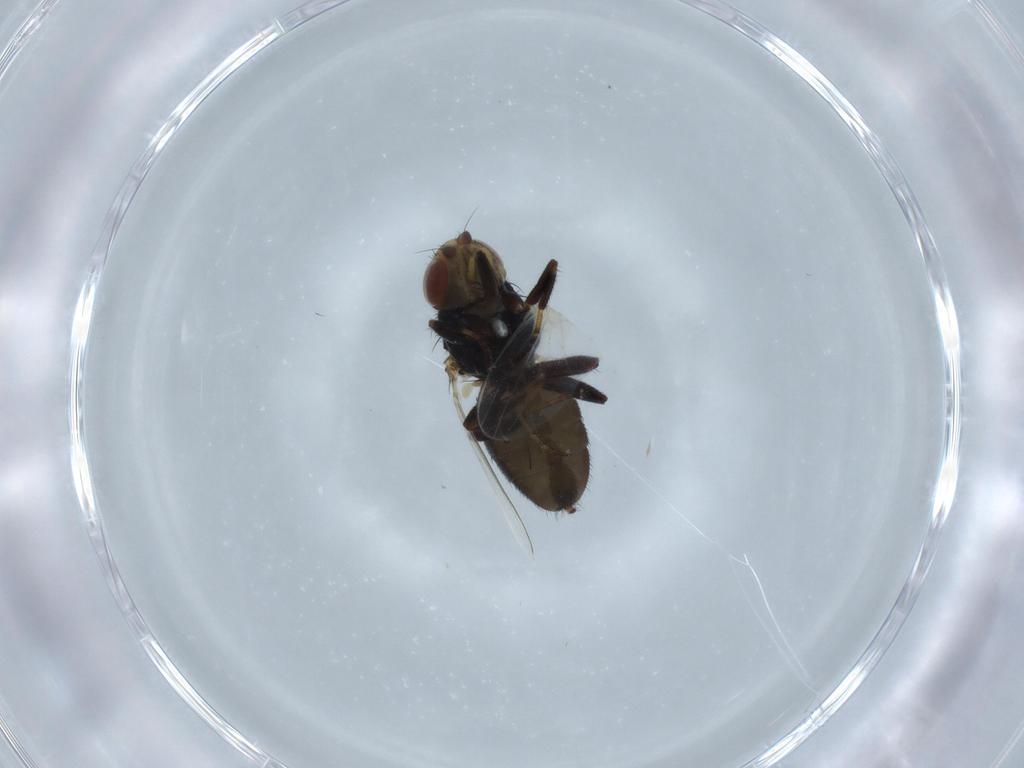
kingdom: Animalia
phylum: Arthropoda
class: Insecta
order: Diptera
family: Milichiidae
